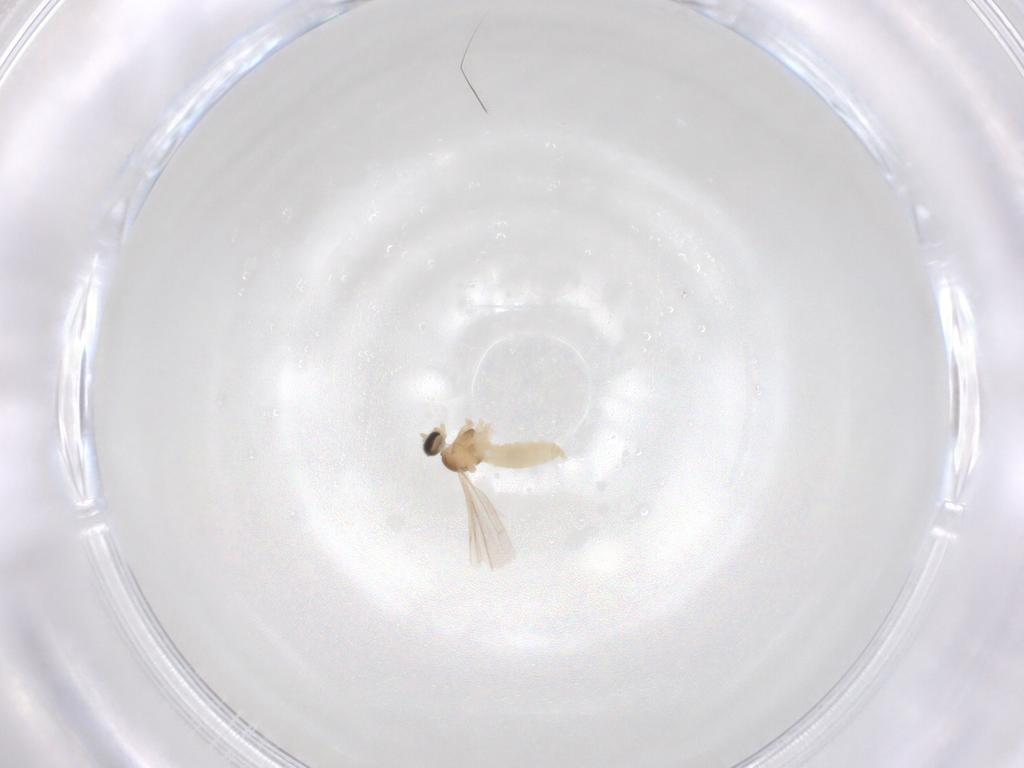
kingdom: Animalia
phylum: Arthropoda
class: Insecta
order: Diptera
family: Cecidomyiidae
